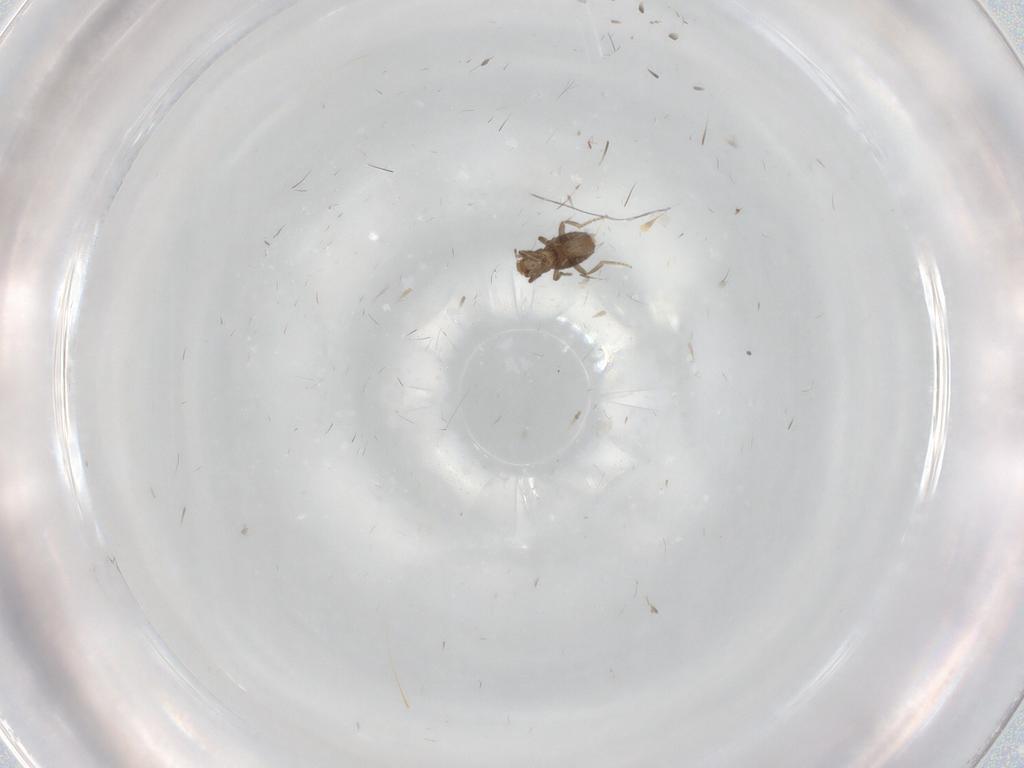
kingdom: Animalia
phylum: Arthropoda
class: Insecta
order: Diptera
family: Phoridae
